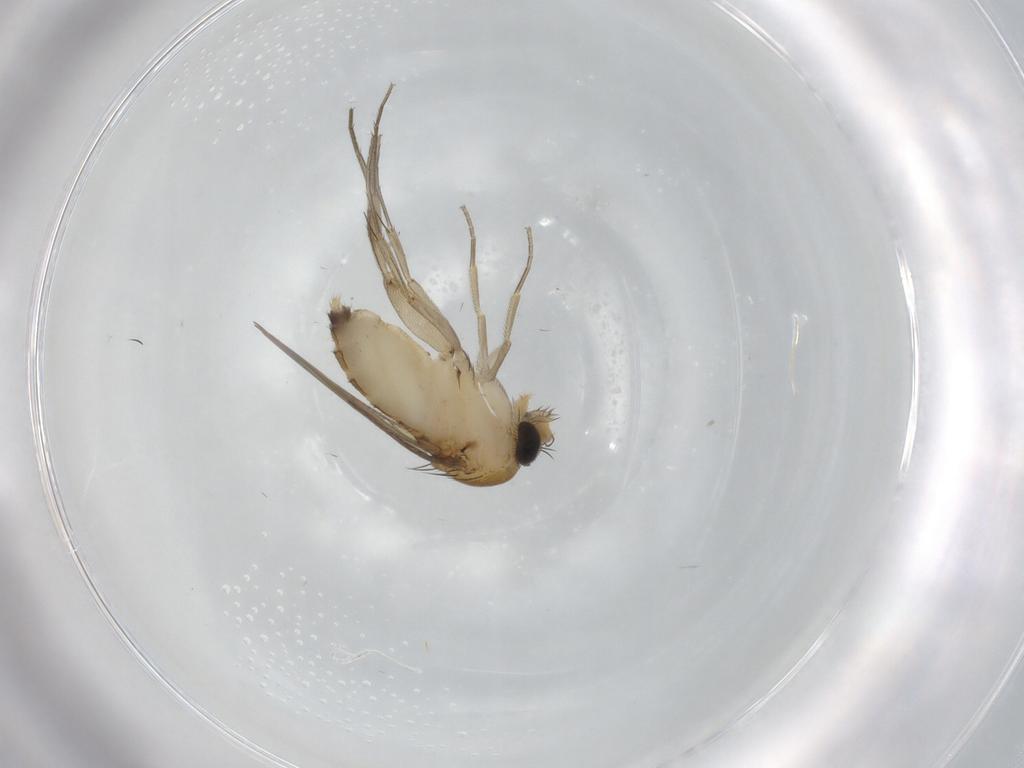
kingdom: Animalia
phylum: Arthropoda
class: Insecta
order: Diptera
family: Phoridae
